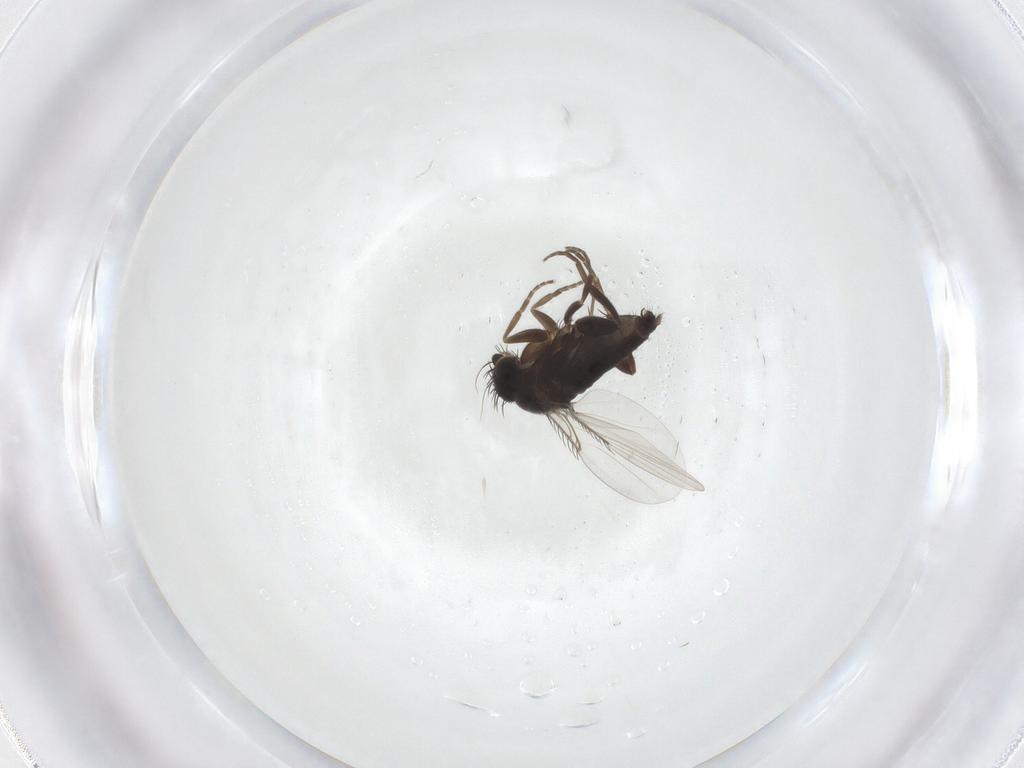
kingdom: Animalia
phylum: Arthropoda
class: Insecta
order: Diptera
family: Phoridae
